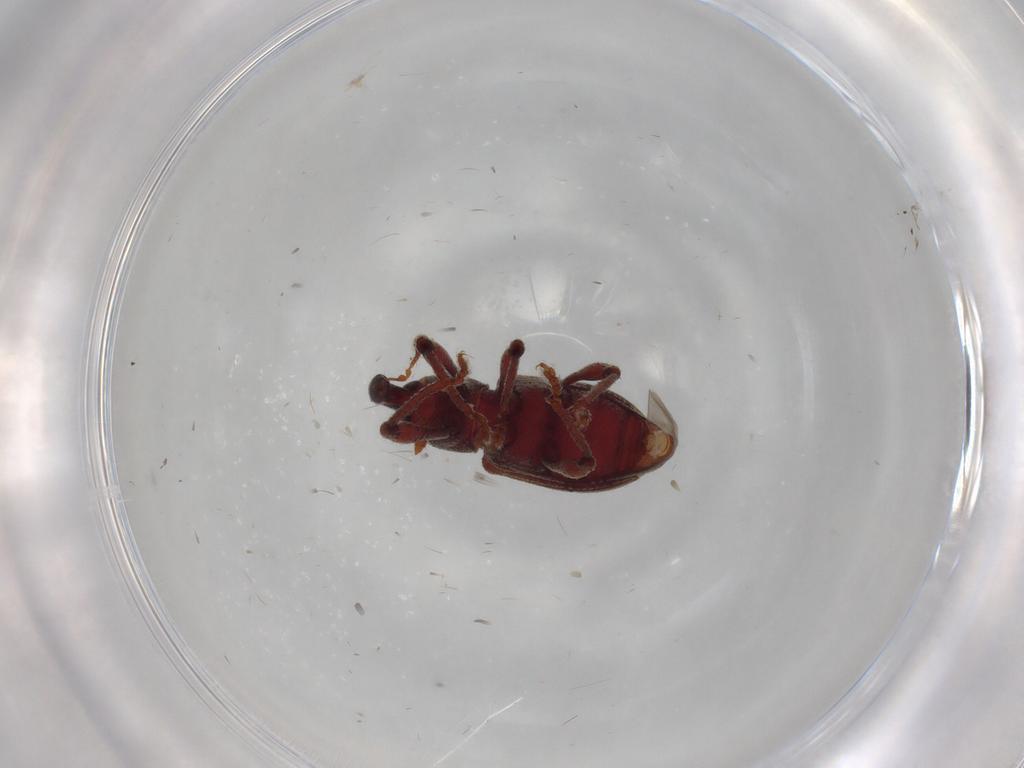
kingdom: Animalia
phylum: Arthropoda
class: Insecta
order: Coleoptera
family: Curculionidae
